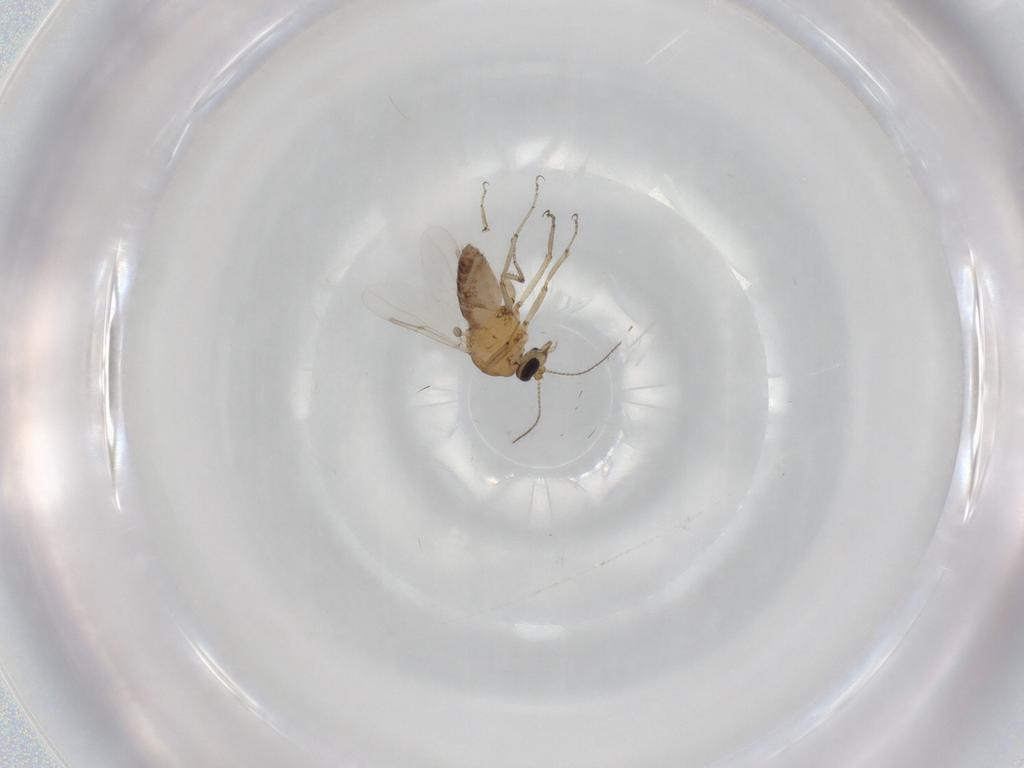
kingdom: Animalia
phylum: Arthropoda
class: Insecta
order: Diptera
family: Ceratopogonidae
